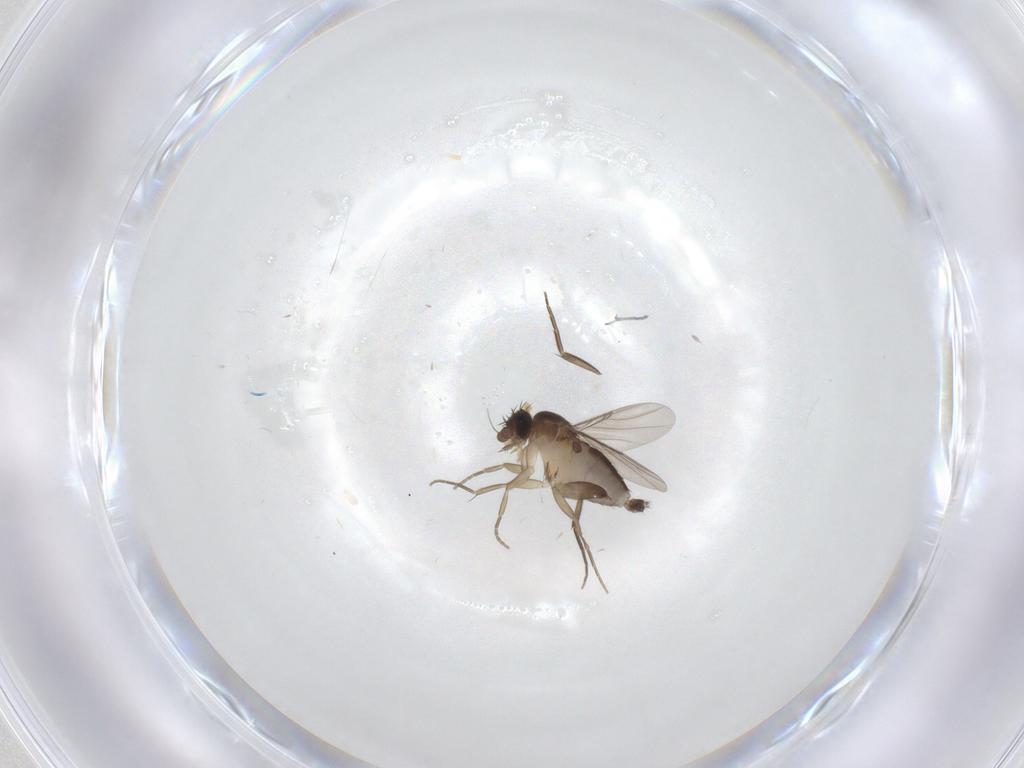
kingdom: Animalia
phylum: Arthropoda
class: Insecta
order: Diptera
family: Phoridae
